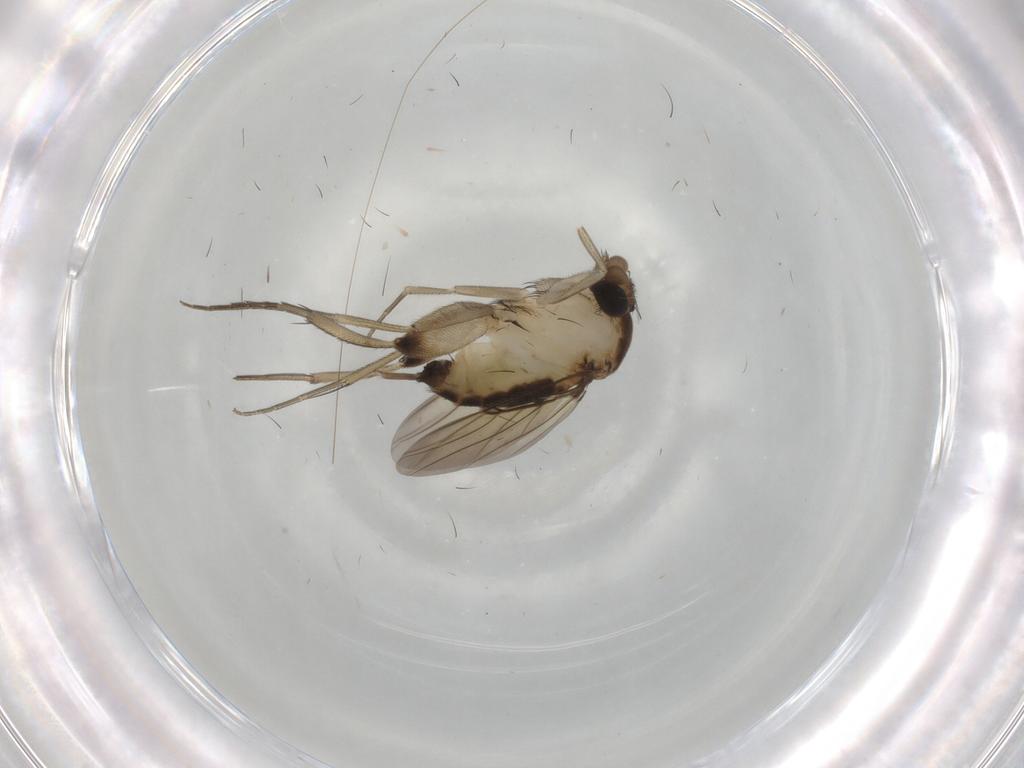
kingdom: Animalia
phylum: Arthropoda
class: Insecta
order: Diptera
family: Phoridae
